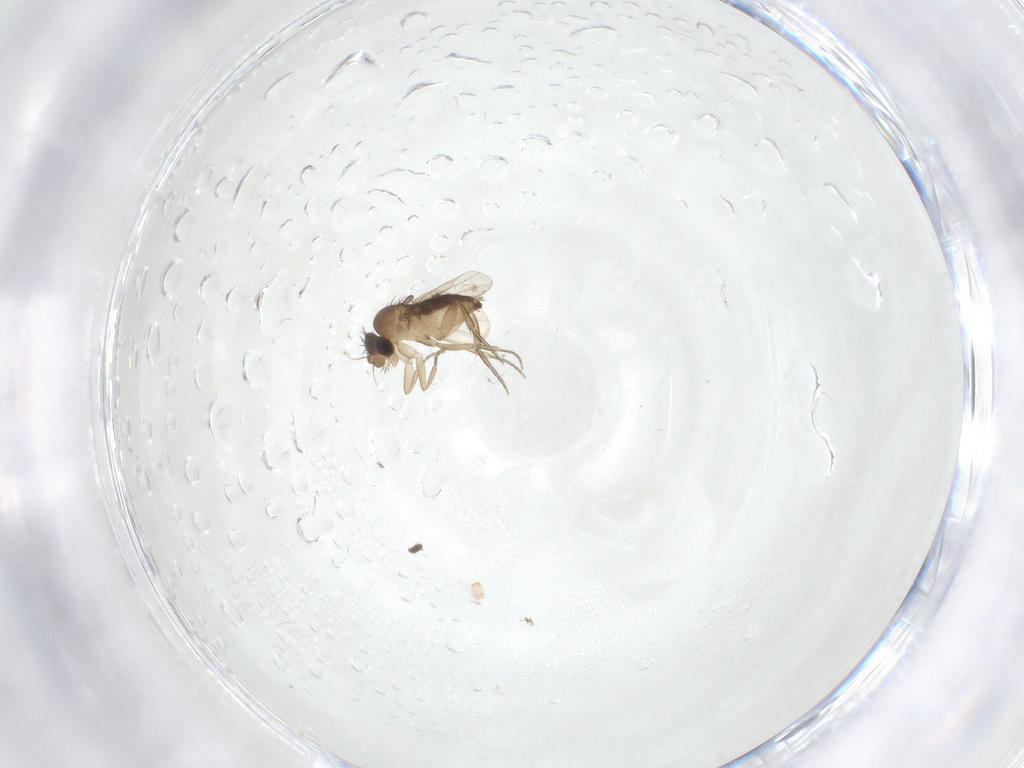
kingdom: Animalia
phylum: Arthropoda
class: Insecta
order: Diptera
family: Phoridae
